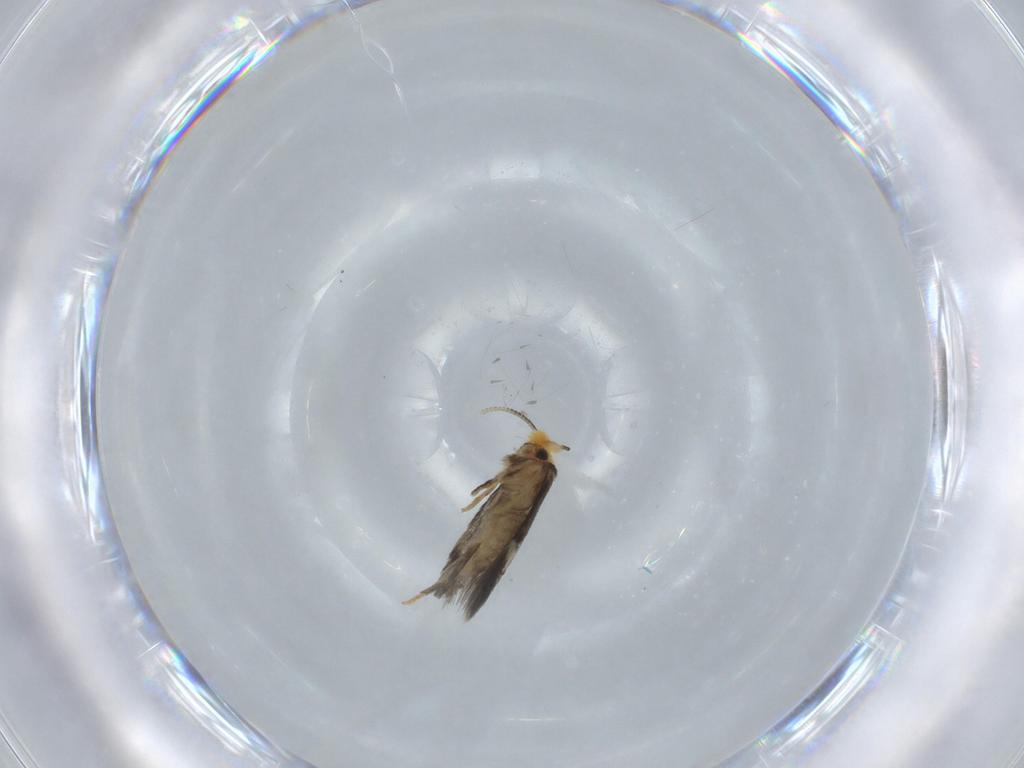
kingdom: Animalia
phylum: Arthropoda
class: Insecta
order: Lepidoptera
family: Nepticulidae
